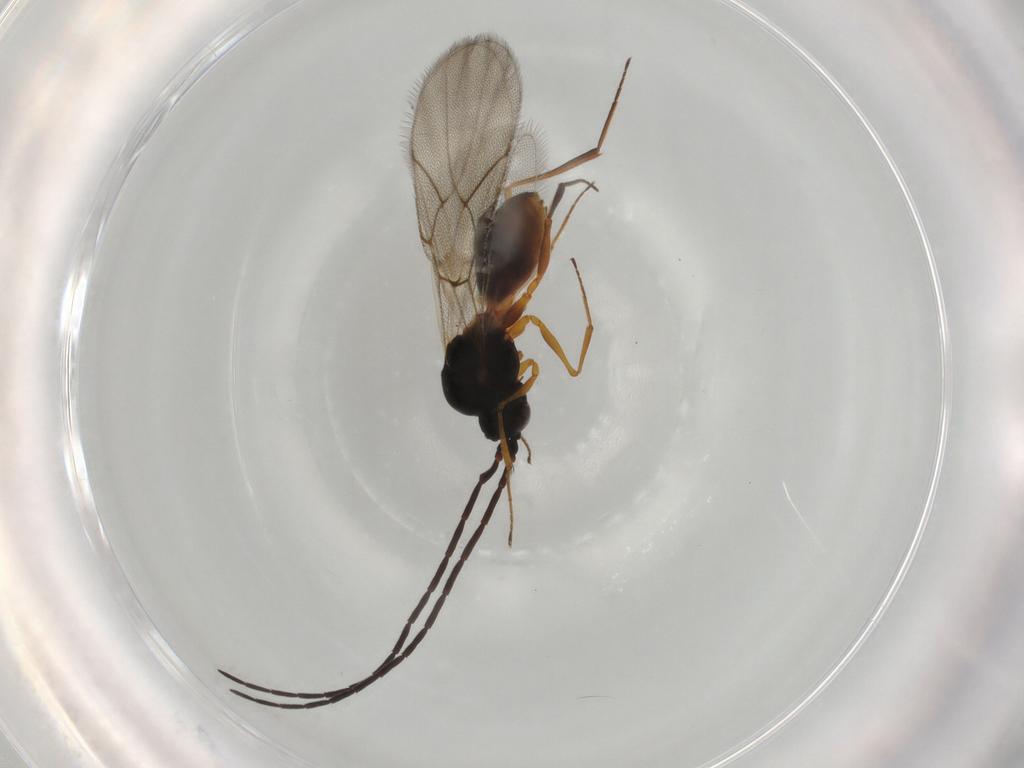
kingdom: Animalia
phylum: Arthropoda
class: Insecta
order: Hymenoptera
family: Figitidae
